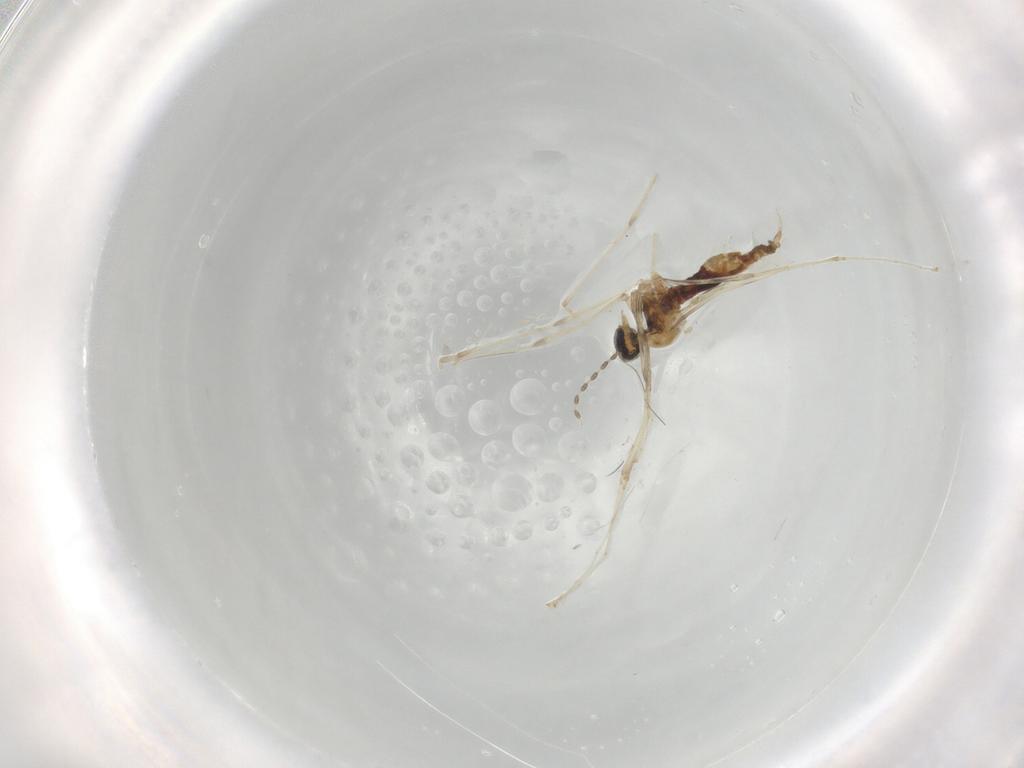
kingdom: Animalia
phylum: Arthropoda
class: Insecta
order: Diptera
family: Cecidomyiidae
